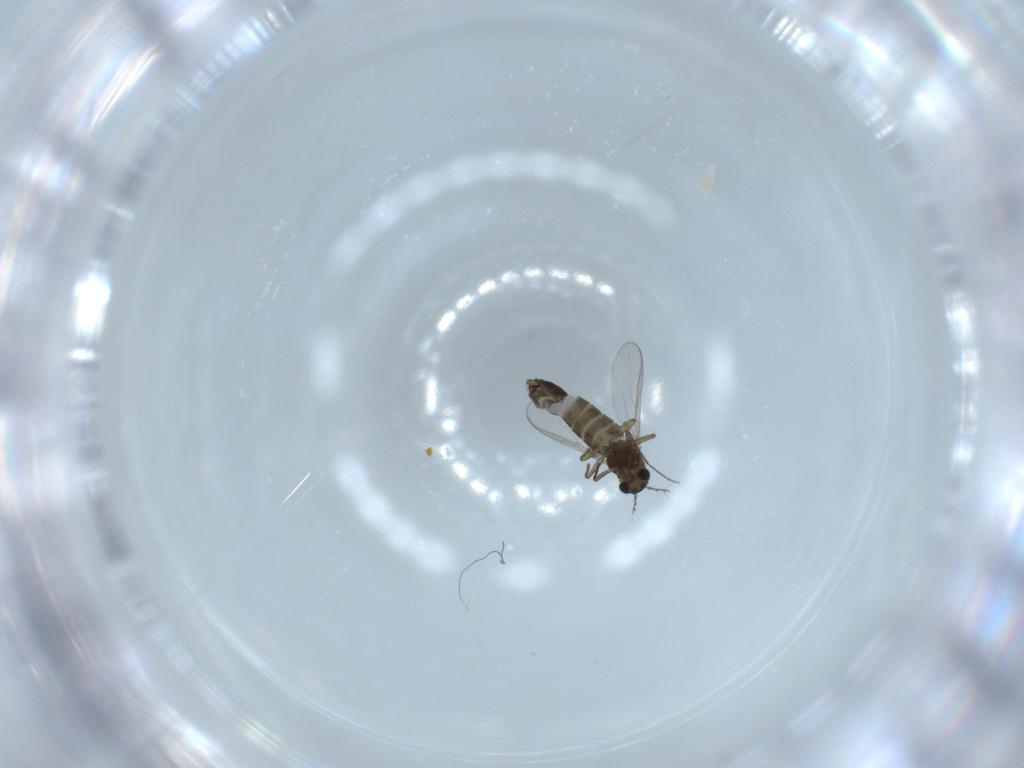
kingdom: Animalia
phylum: Arthropoda
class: Insecta
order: Diptera
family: Chironomidae
